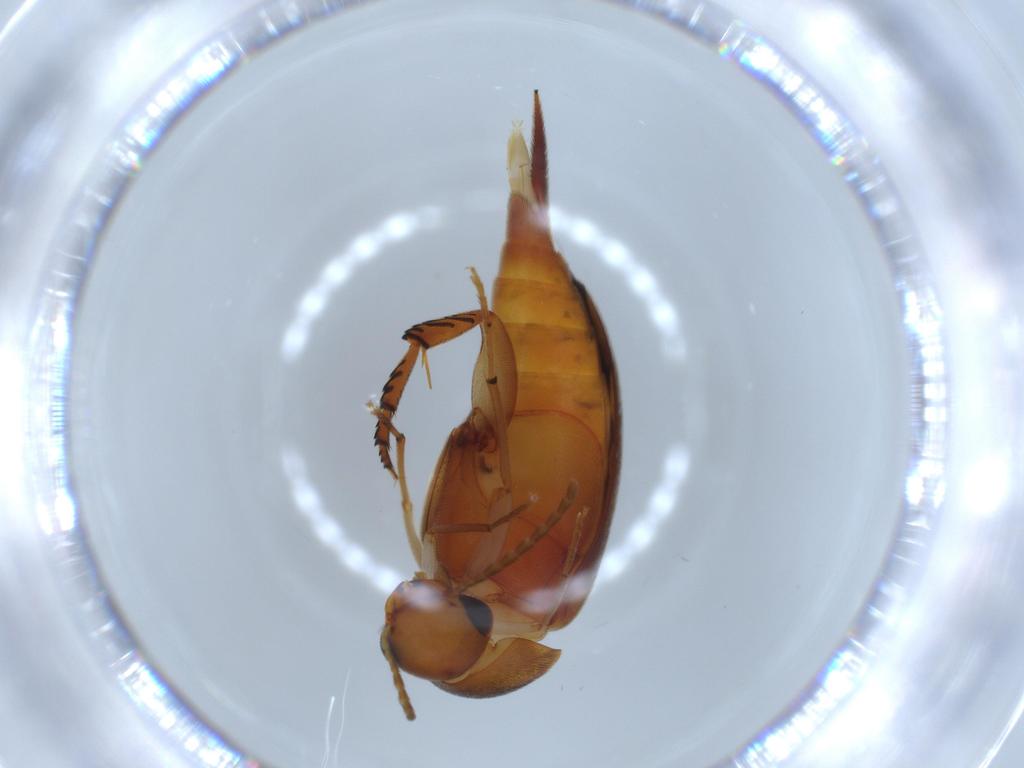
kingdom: Animalia
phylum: Arthropoda
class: Insecta
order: Coleoptera
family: Mordellidae
